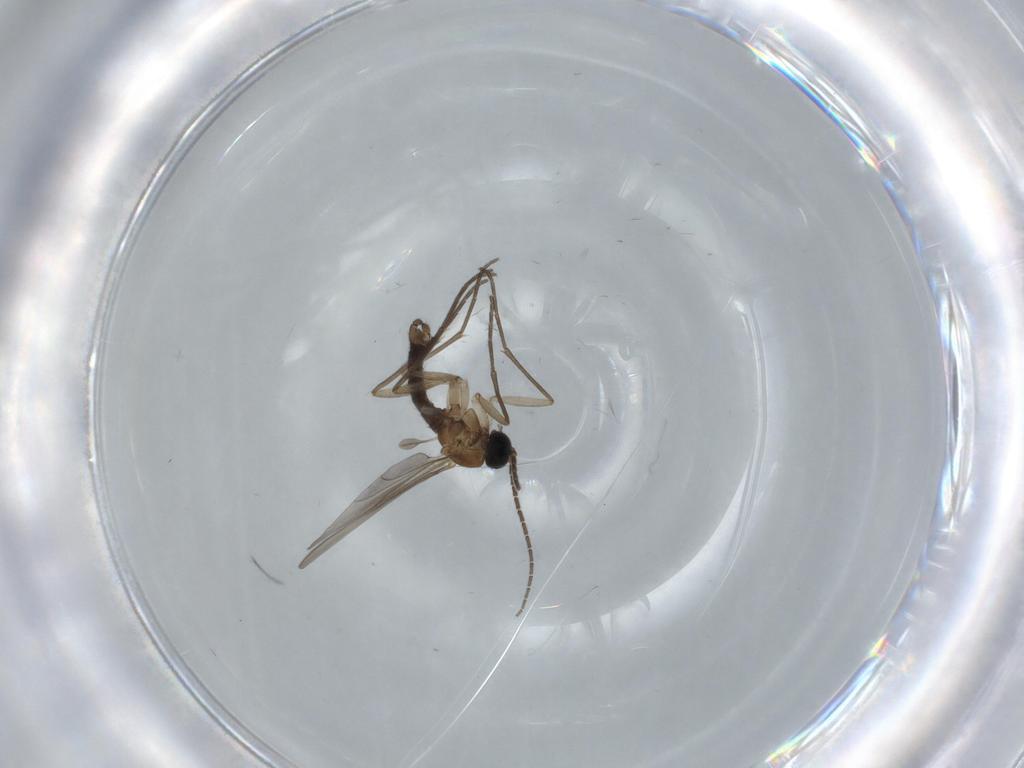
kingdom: Animalia
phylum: Arthropoda
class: Insecta
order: Diptera
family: Sciaridae
